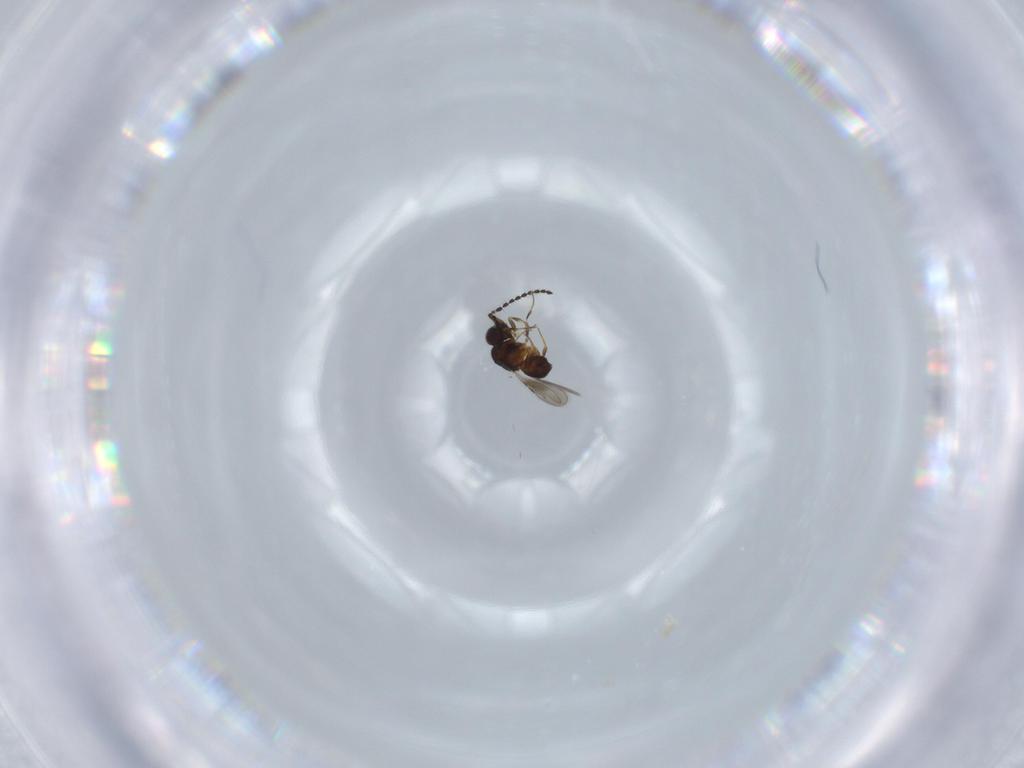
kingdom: Animalia
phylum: Arthropoda
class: Insecta
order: Hymenoptera
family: Ceraphronidae
